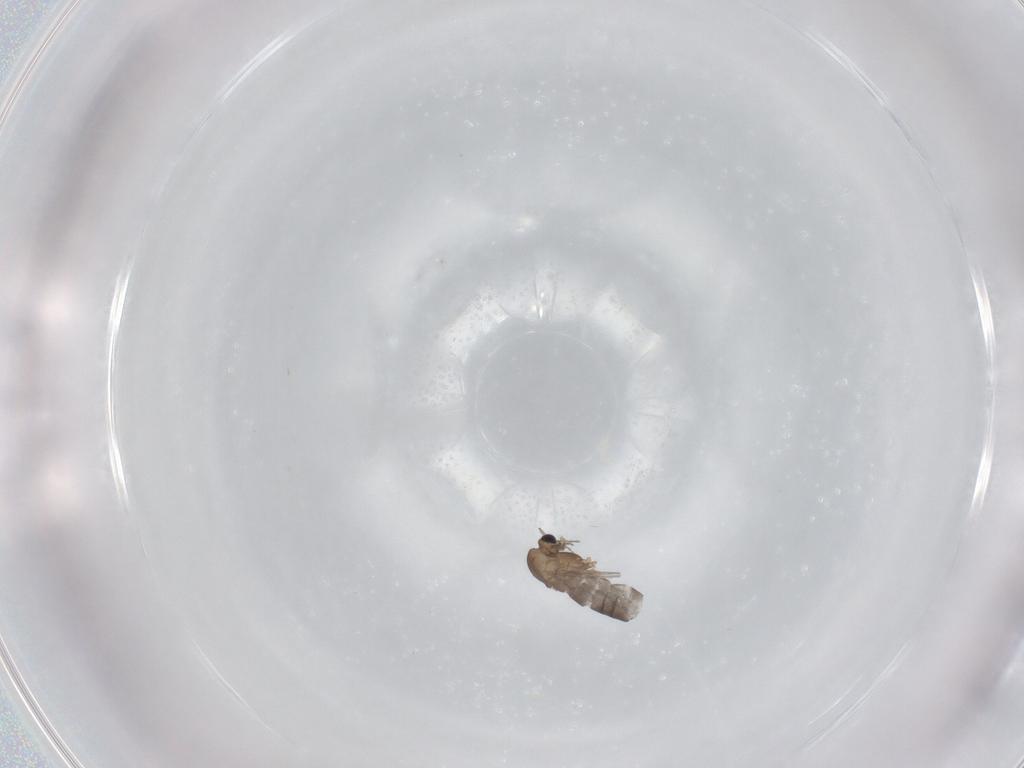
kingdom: Animalia
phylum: Arthropoda
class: Insecta
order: Diptera
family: Chironomidae
